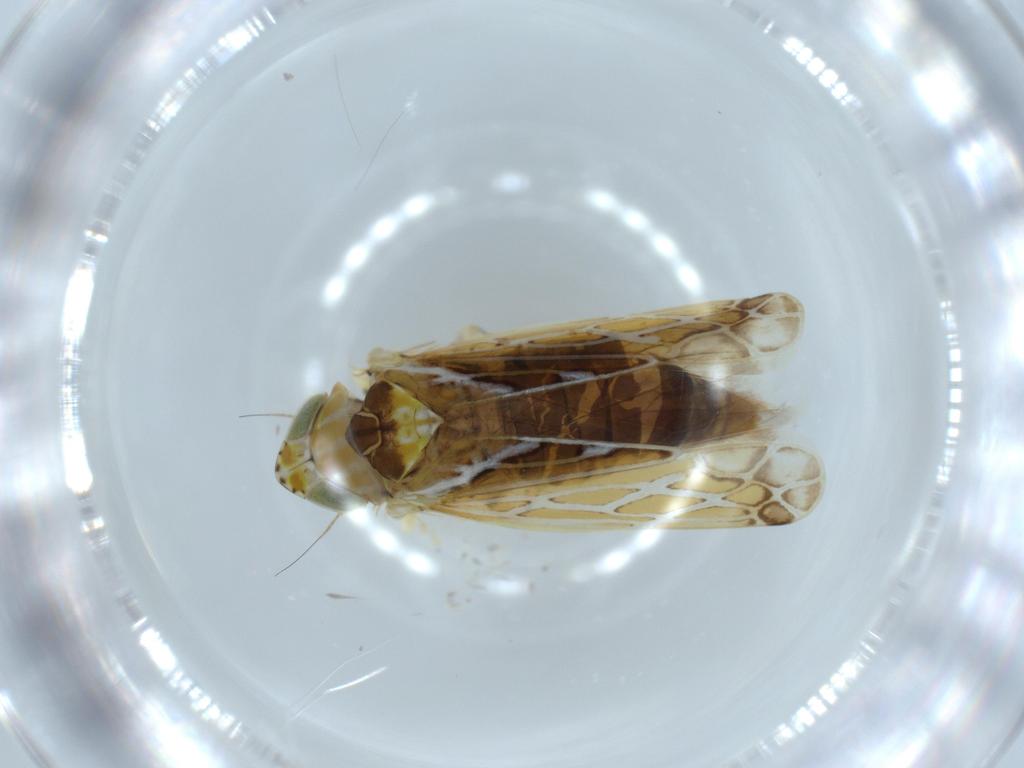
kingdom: Animalia
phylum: Arthropoda
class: Insecta
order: Hemiptera
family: Cicadellidae
